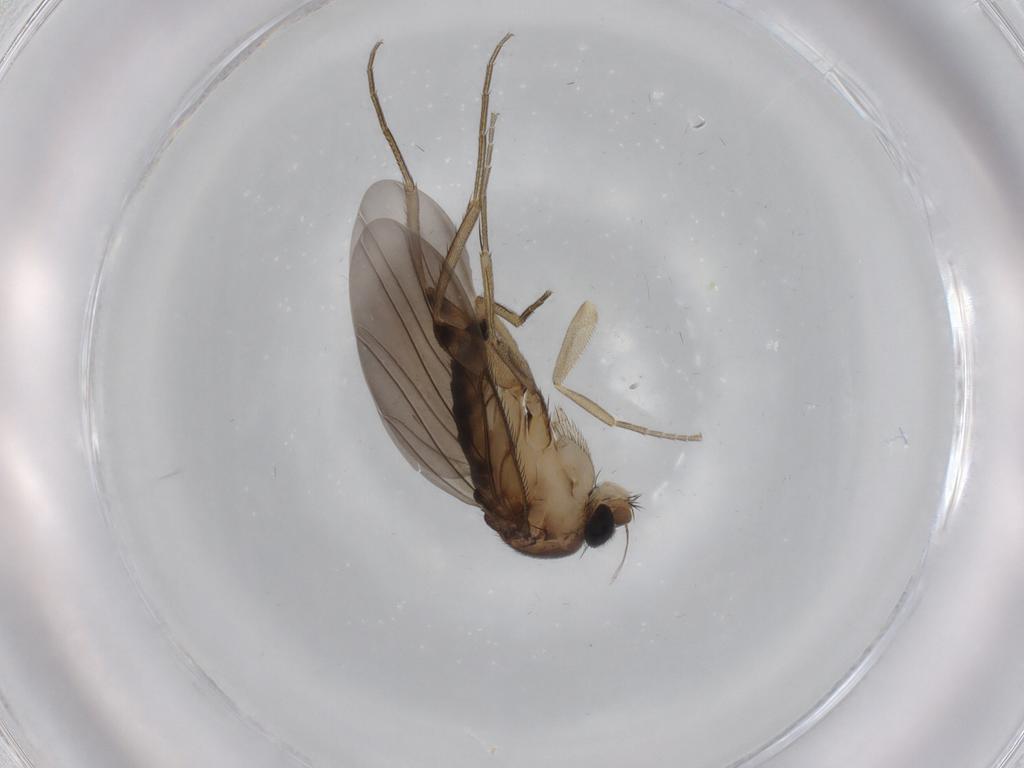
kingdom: Animalia
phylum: Arthropoda
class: Insecta
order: Diptera
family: Phoridae
